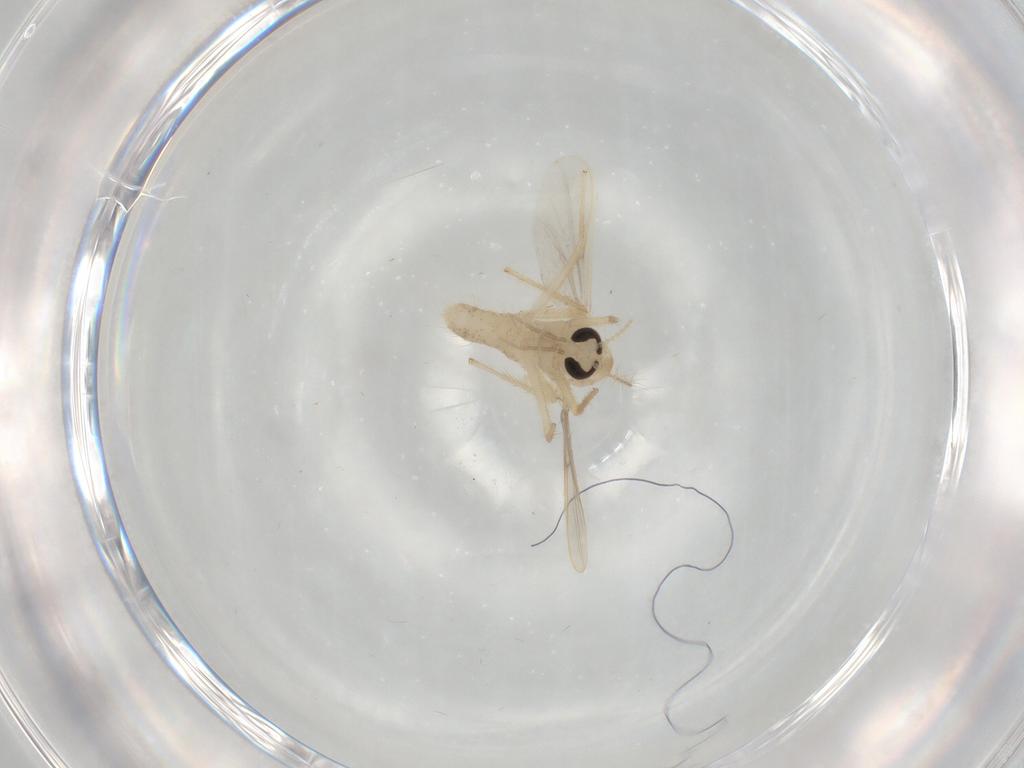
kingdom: Animalia
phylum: Arthropoda
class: Insecta
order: Diptera
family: Chironomidae
